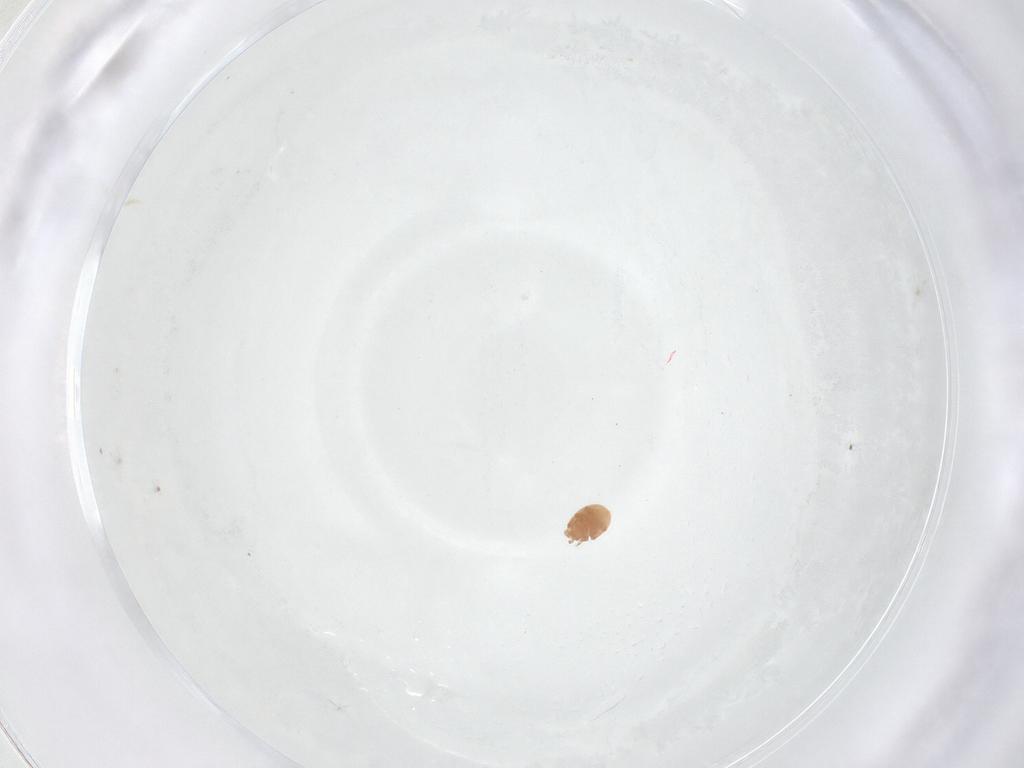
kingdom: Animalia
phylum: Arthropoda
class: Arachnida
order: Mesostigmata
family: Trematuridae
